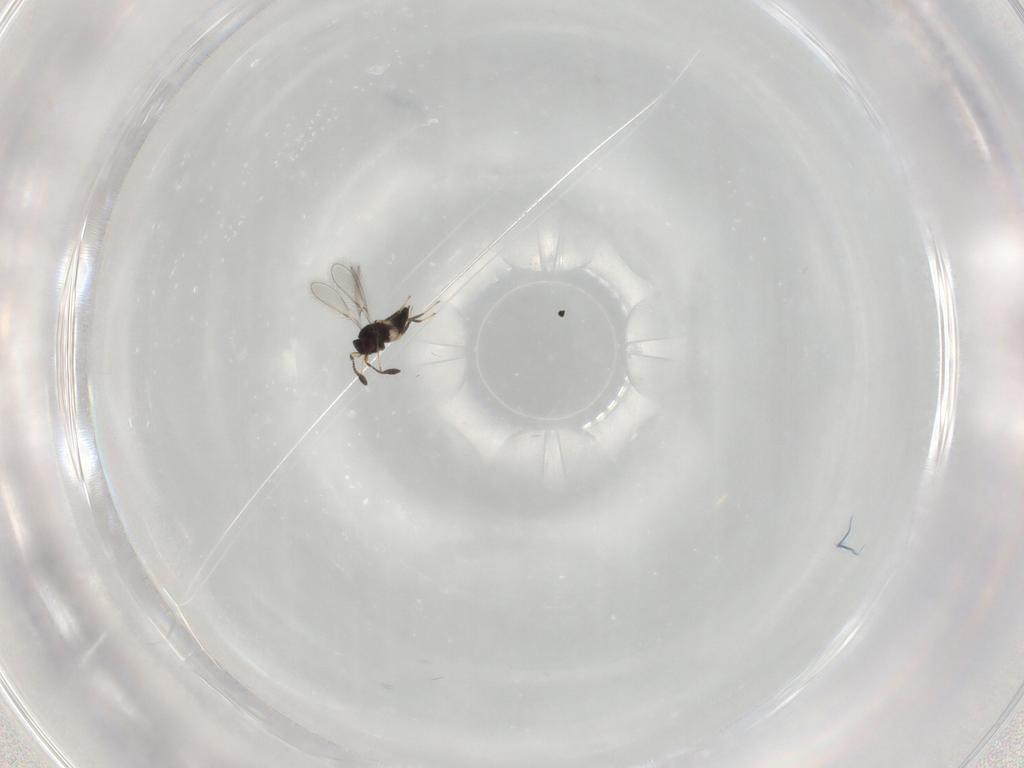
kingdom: Animalia
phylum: Arthropoda
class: Insecta
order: Hymenoptera
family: Mymaridae
